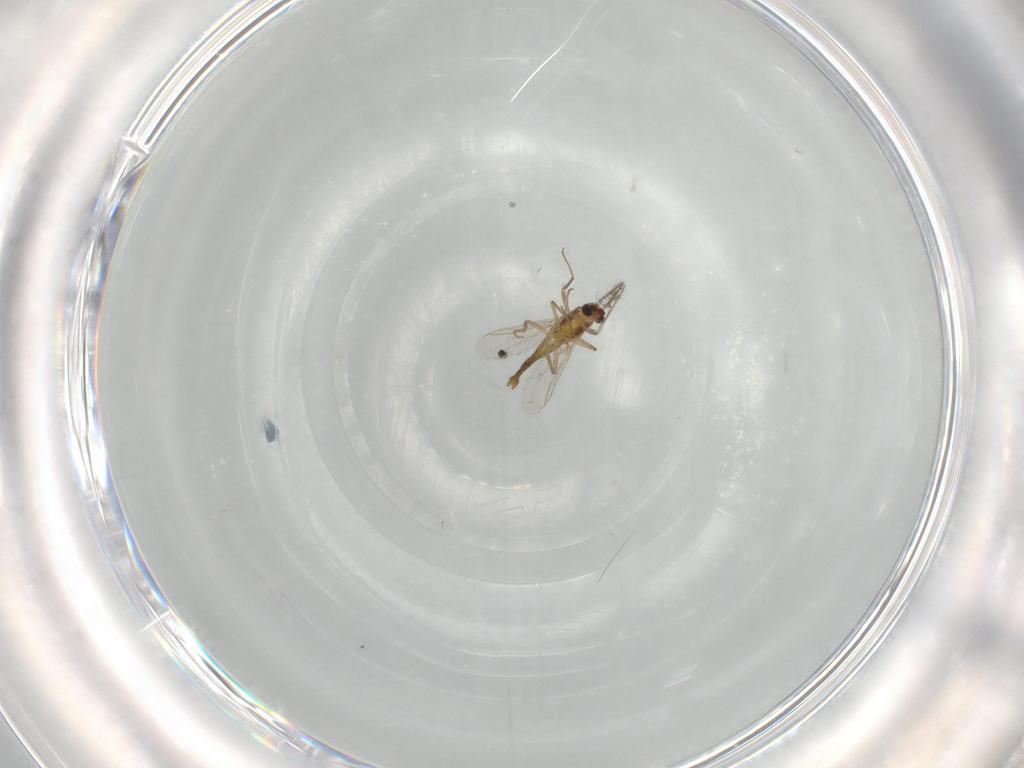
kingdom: Animalia
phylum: Arthropoda
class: Insecta
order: Diptera
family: Chironomidae
